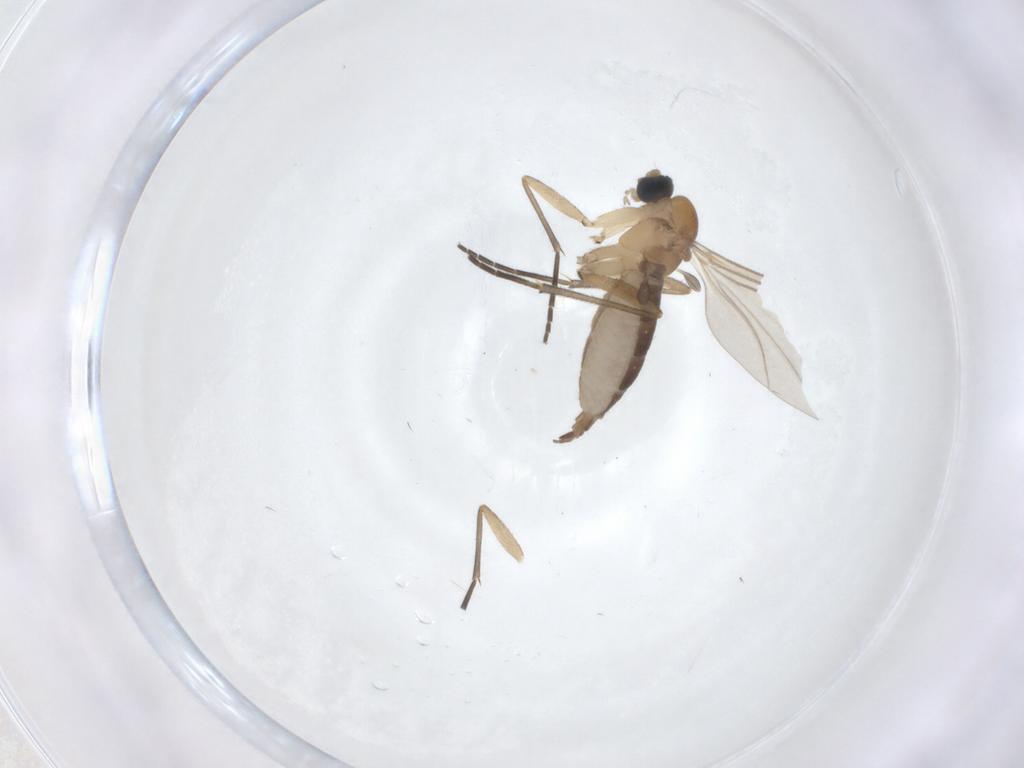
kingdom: Animalia
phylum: Arthropoda
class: Insecta
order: Diptera
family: Sciaridae
